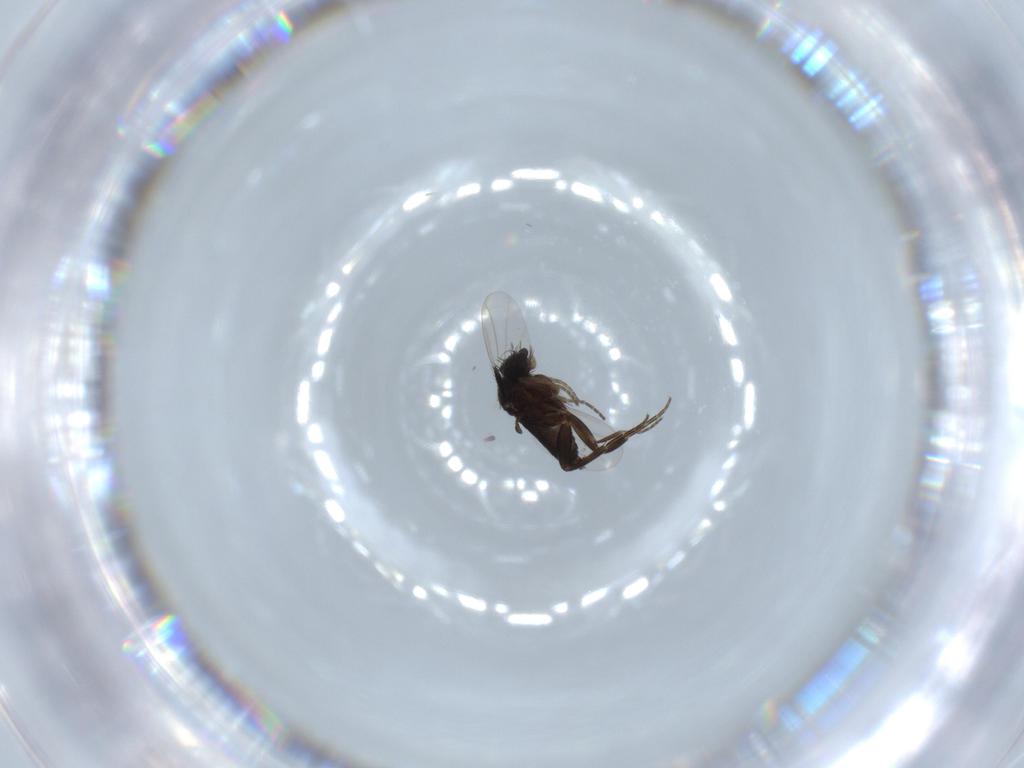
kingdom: Animalia
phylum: Arthropoda
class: Insecta
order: Diptera
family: Phoridae
